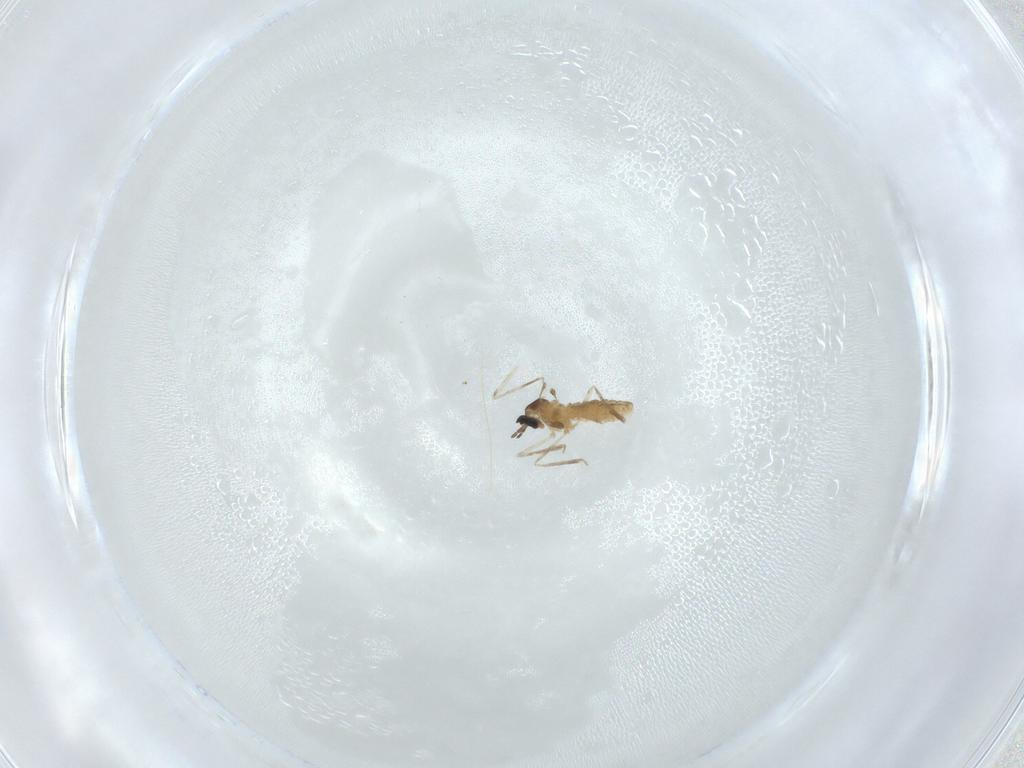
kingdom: Animalia
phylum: Arthropoda
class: Insecta
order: Diptera
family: Cecidomyiidae
